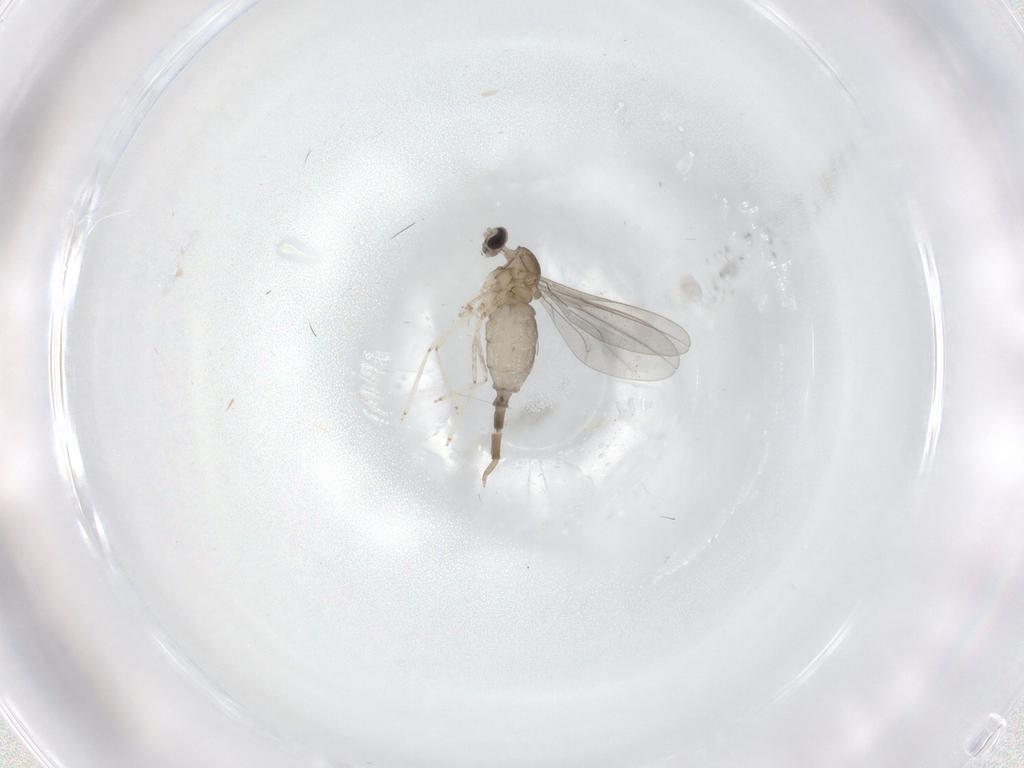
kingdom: Animalia
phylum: Arthropoda
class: Insecta
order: Diptera
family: Cecidomyiidae
